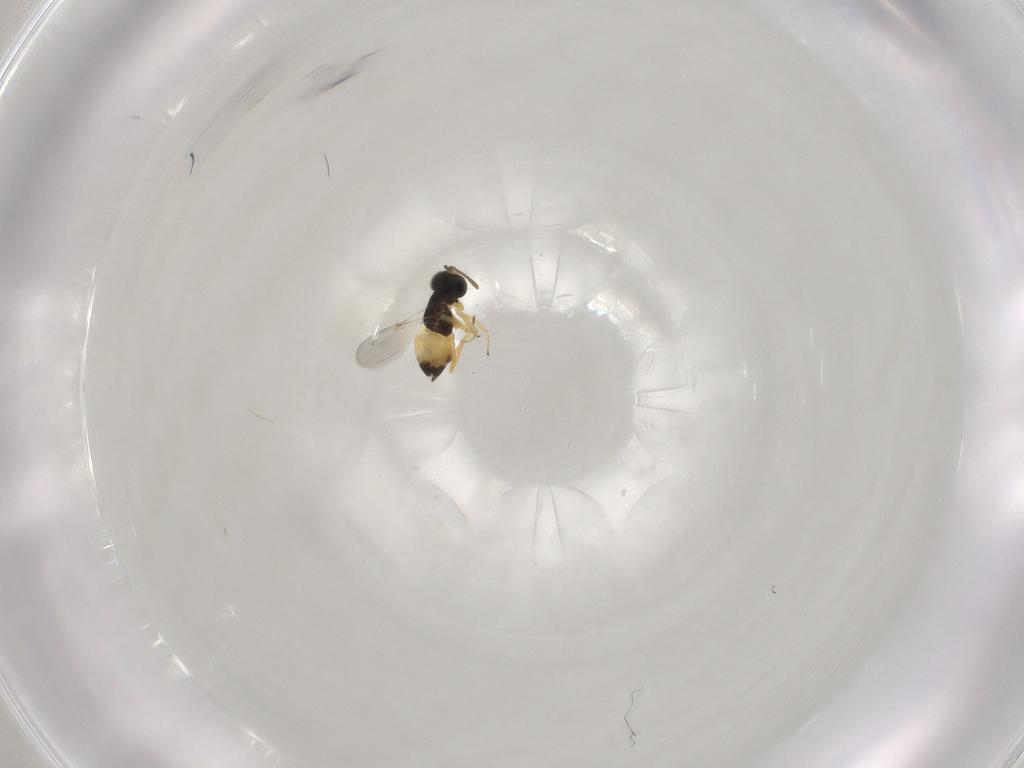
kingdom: Animalia
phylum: Arthropoda
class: Insecta
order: Hymenoptera
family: Encyrtidae
